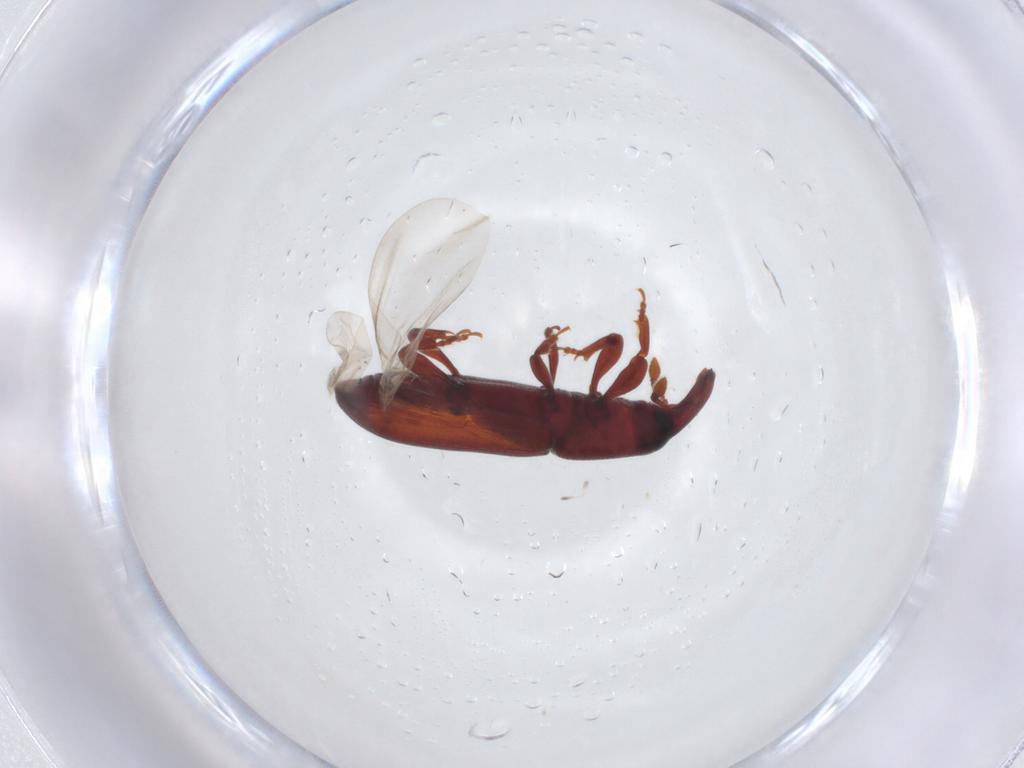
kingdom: Animalia
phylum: Arthropoda
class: Insecta
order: Coleoptera
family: Curculionidae
